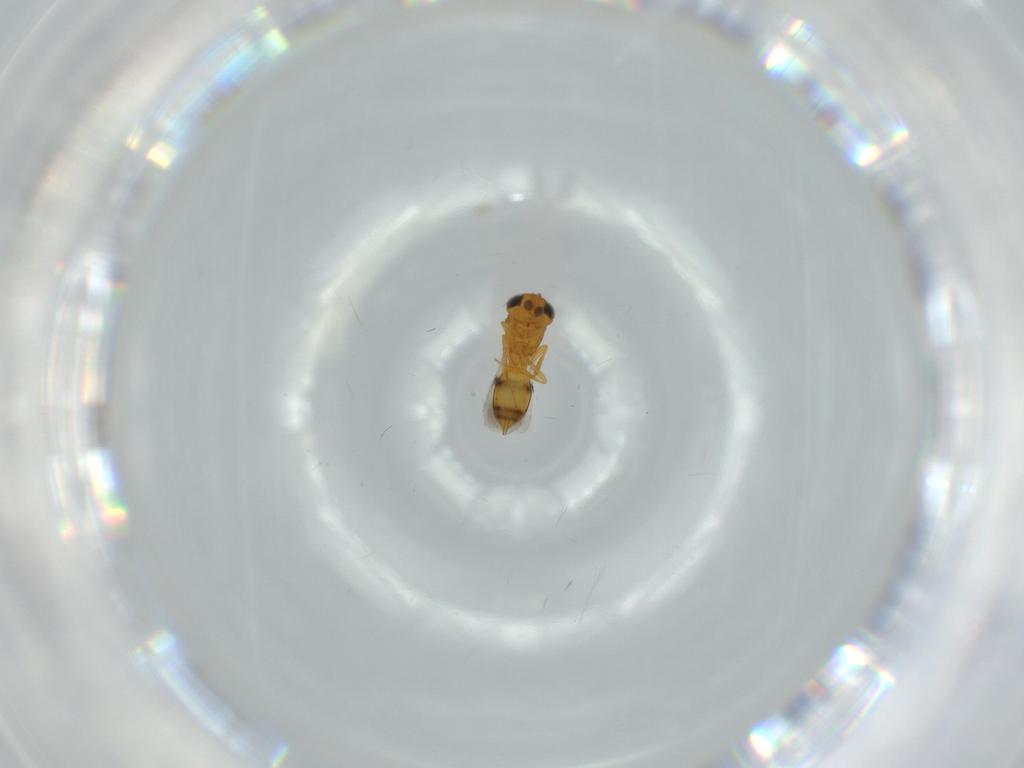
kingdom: Animalia
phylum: Arthropoda
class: Insecta
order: Hymenoptera
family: Scelionidae
